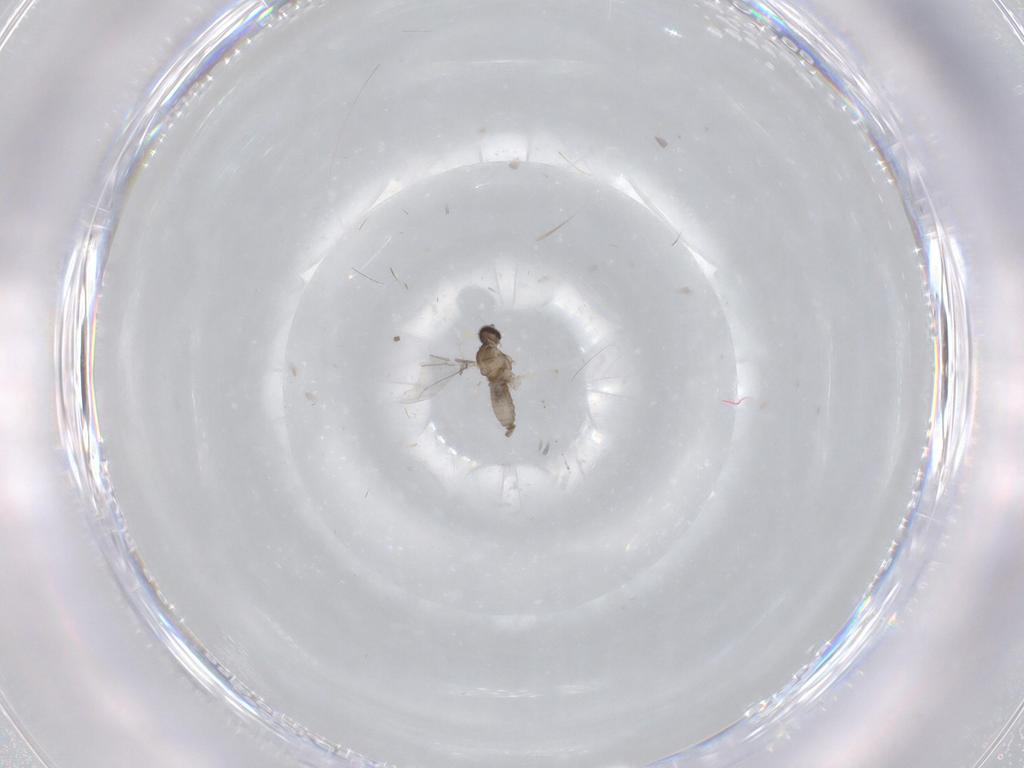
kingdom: Animalia
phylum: Arthropoda
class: Insecta
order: Diptera
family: Cecidomyiidae
